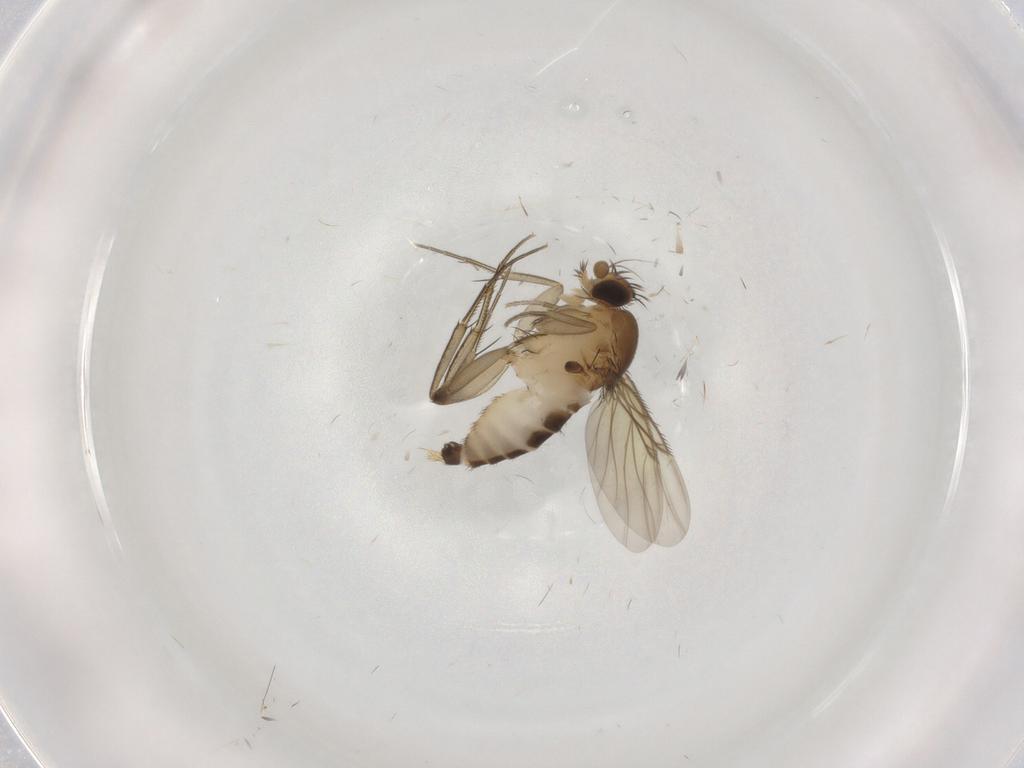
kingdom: Animalia
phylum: Arthropoda
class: Insecta
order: Diptera
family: Phoridae
